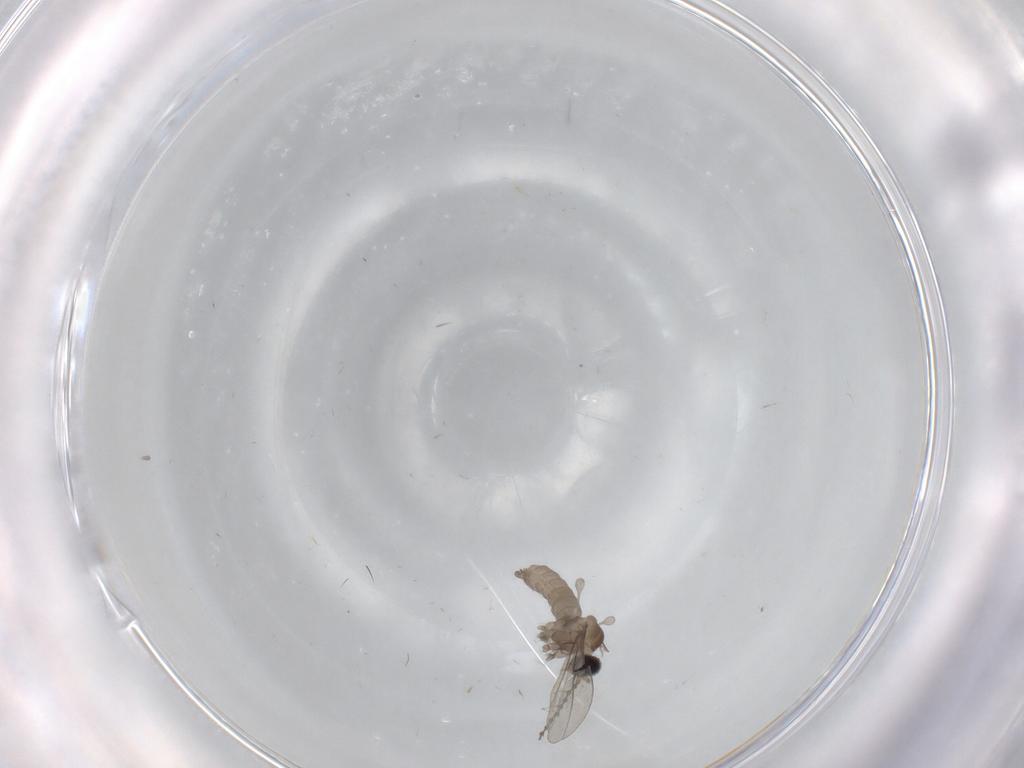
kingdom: Animalia
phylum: Arthropoda
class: Insecta
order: Diptera
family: Cecidomyiidae
